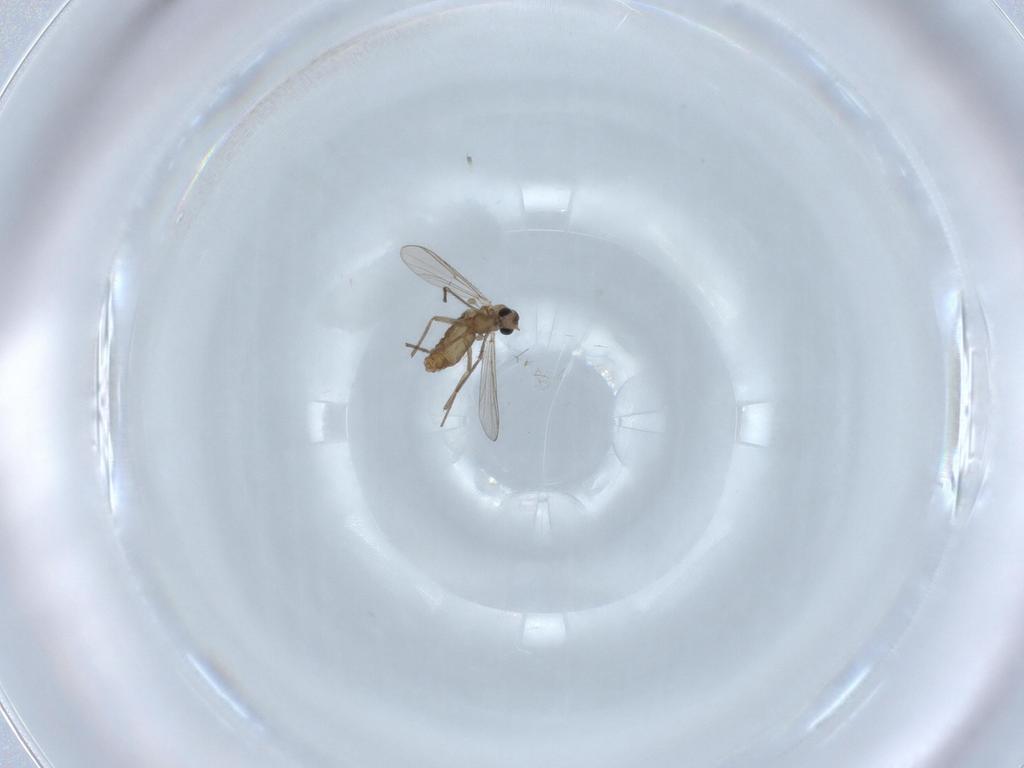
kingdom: Animalia
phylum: Arthropoda
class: Insecta
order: Diptera
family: Chironomidae
